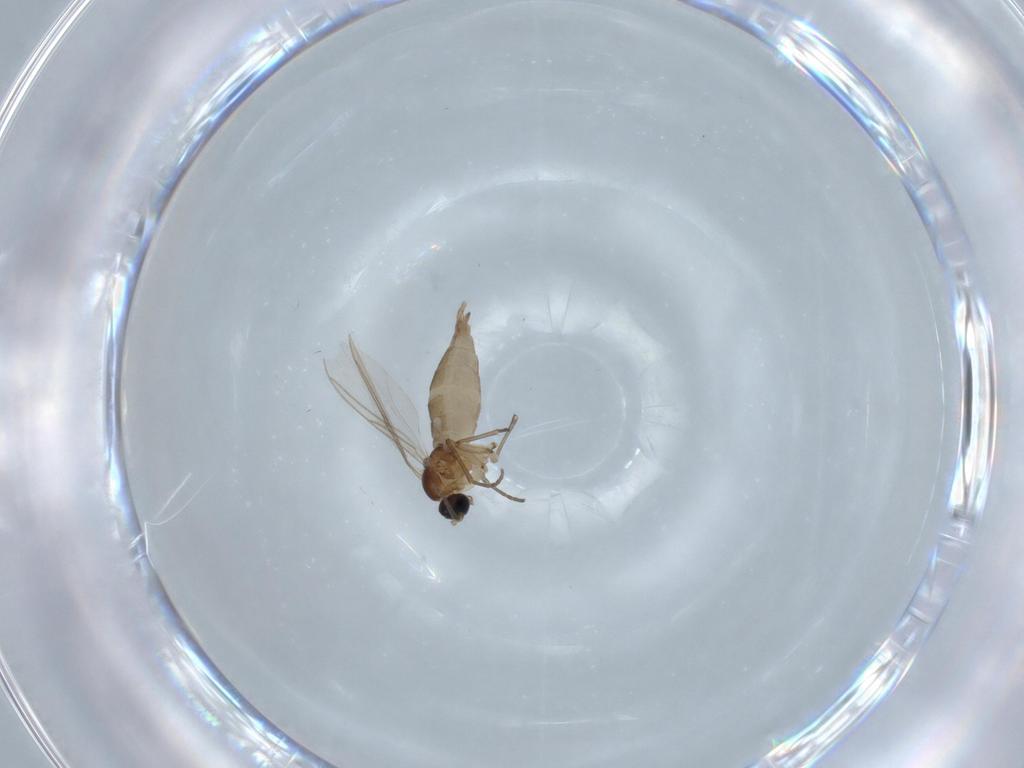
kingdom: Animalia
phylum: Arthropoda
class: Insecta
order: Diptera
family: Sciaridae
